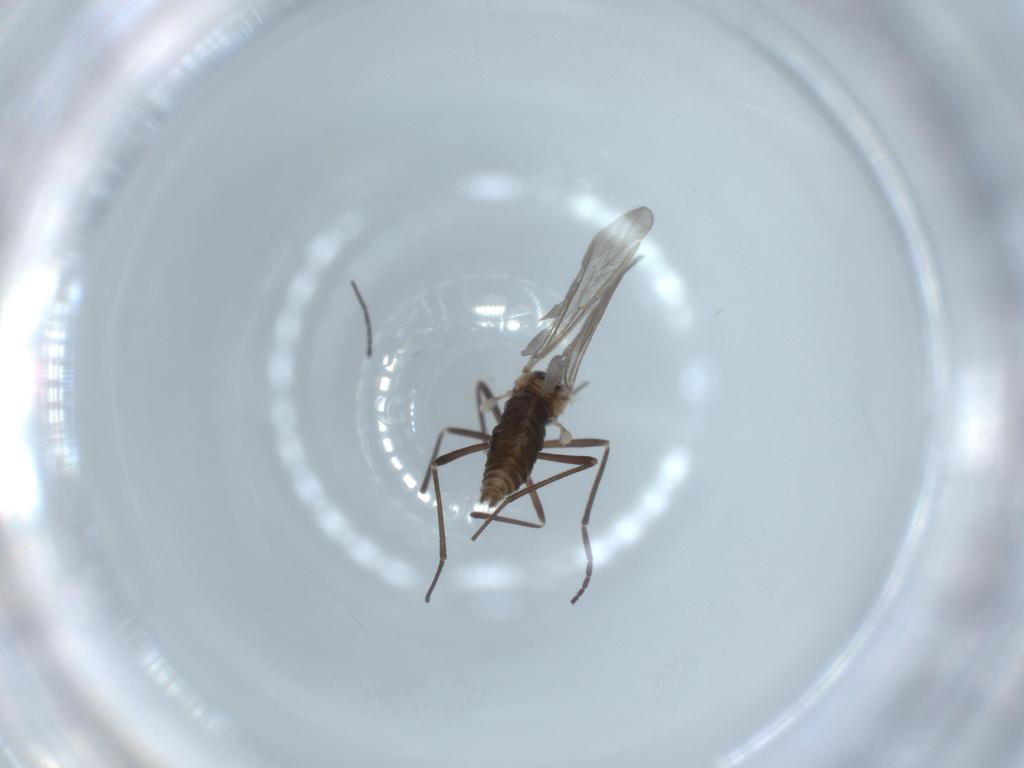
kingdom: Animalia
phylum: Arthropoda
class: Insecta
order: Diptera
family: Cecidomyiidae
